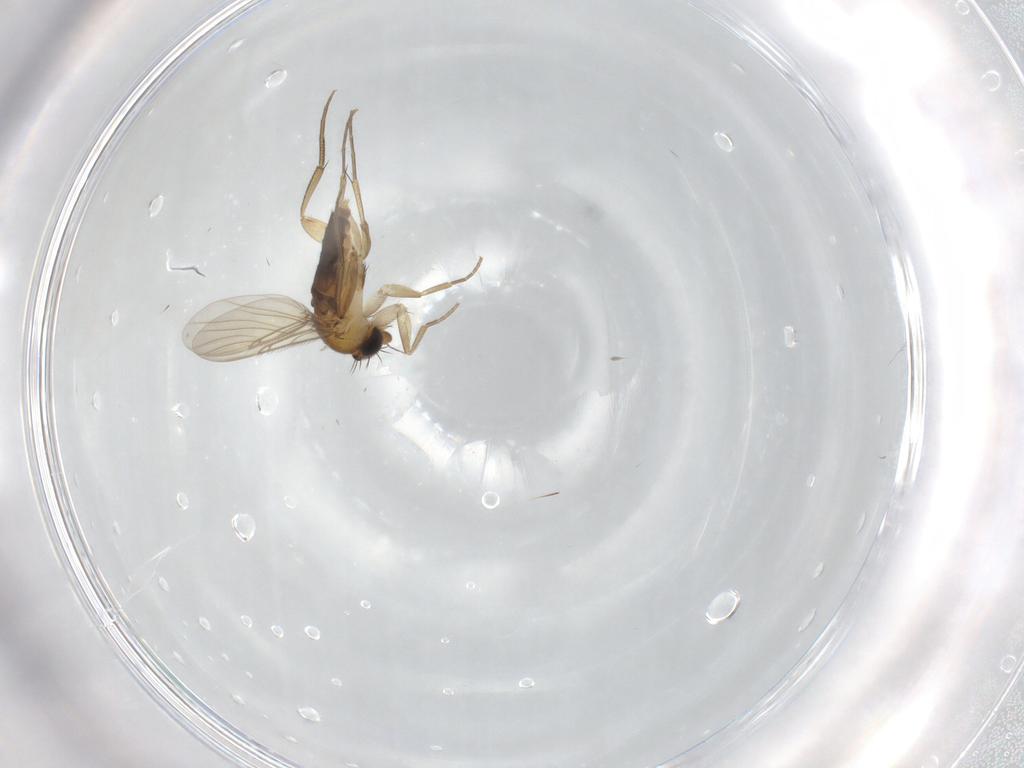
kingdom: Animalia
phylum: Arthropoda
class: Insecta
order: Diptera
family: Phoridae
